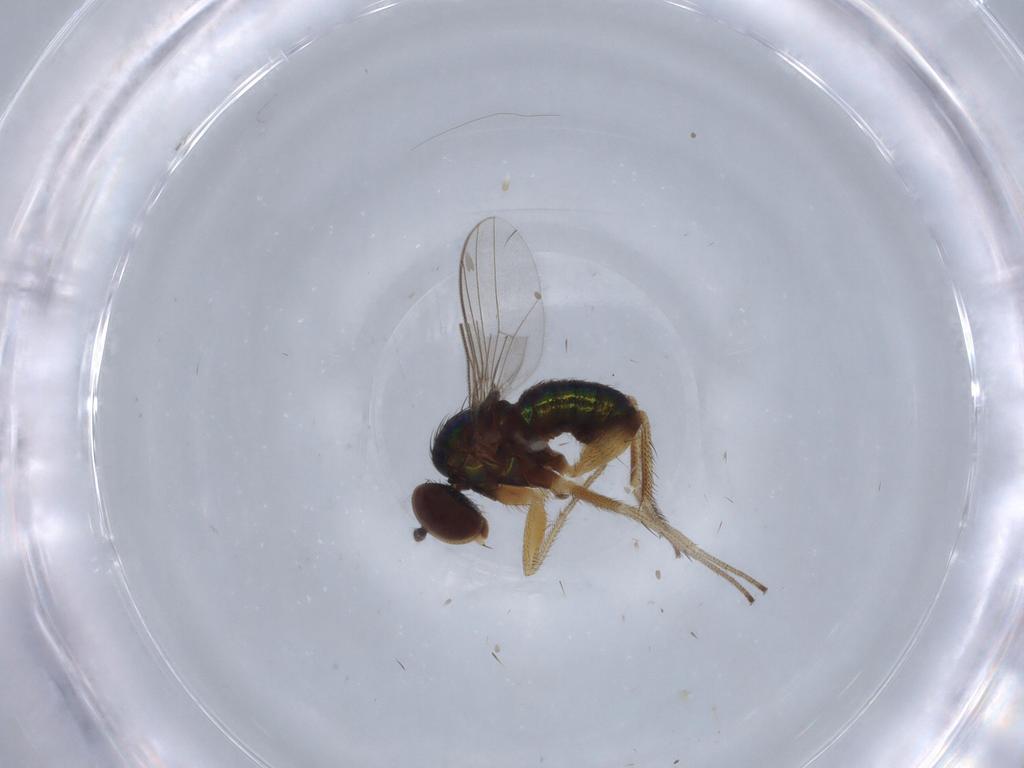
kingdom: Animalia
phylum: Arthropoda
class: Insecta
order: Diptera
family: Dolichopodidae
